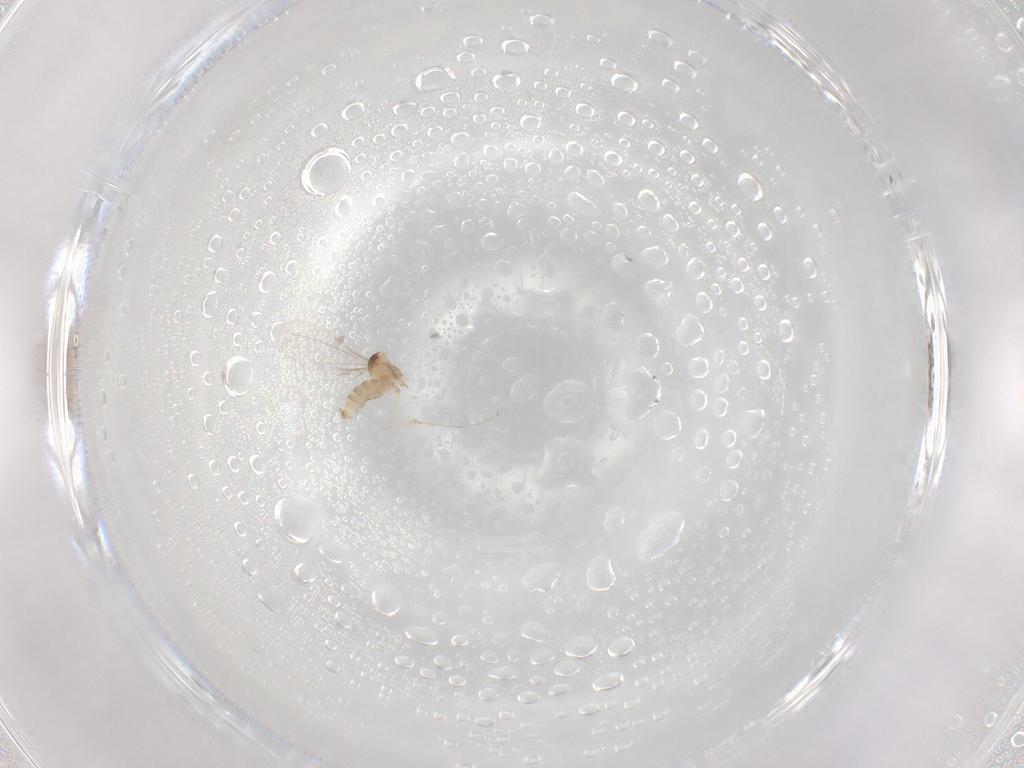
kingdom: Animalia
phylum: Arthropoda
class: Insecta
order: Diptera
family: Cecidomyiidae
